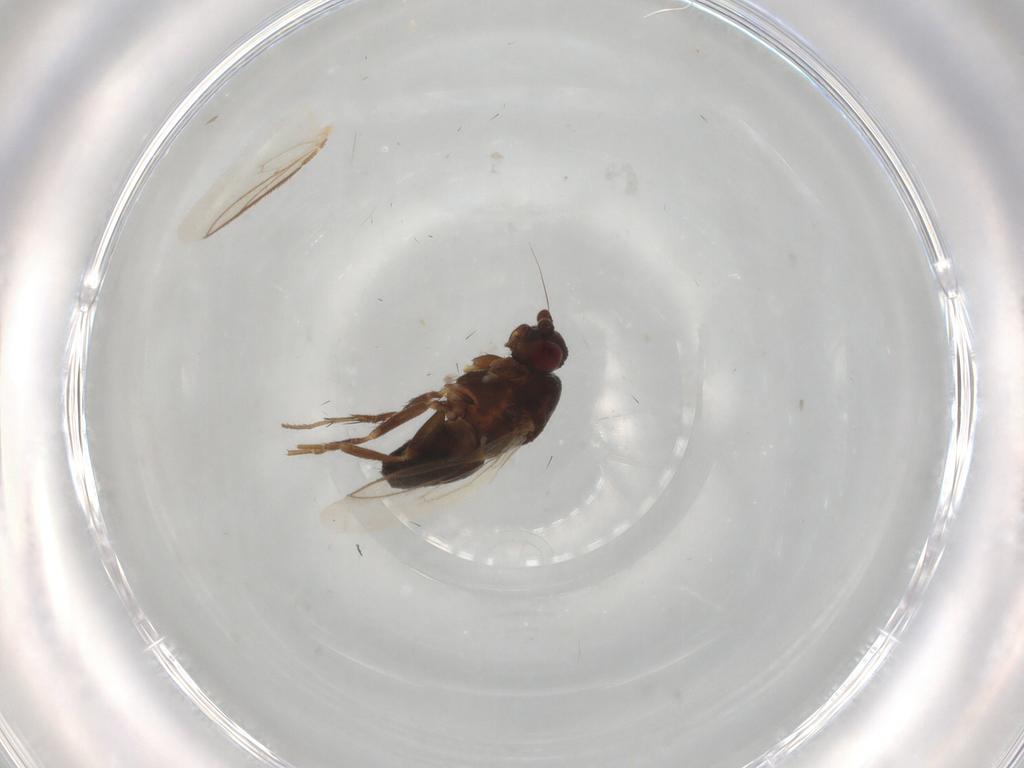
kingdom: Animalia
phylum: Arthropoda
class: Insecta
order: Diptera
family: Sphaeroceridae
